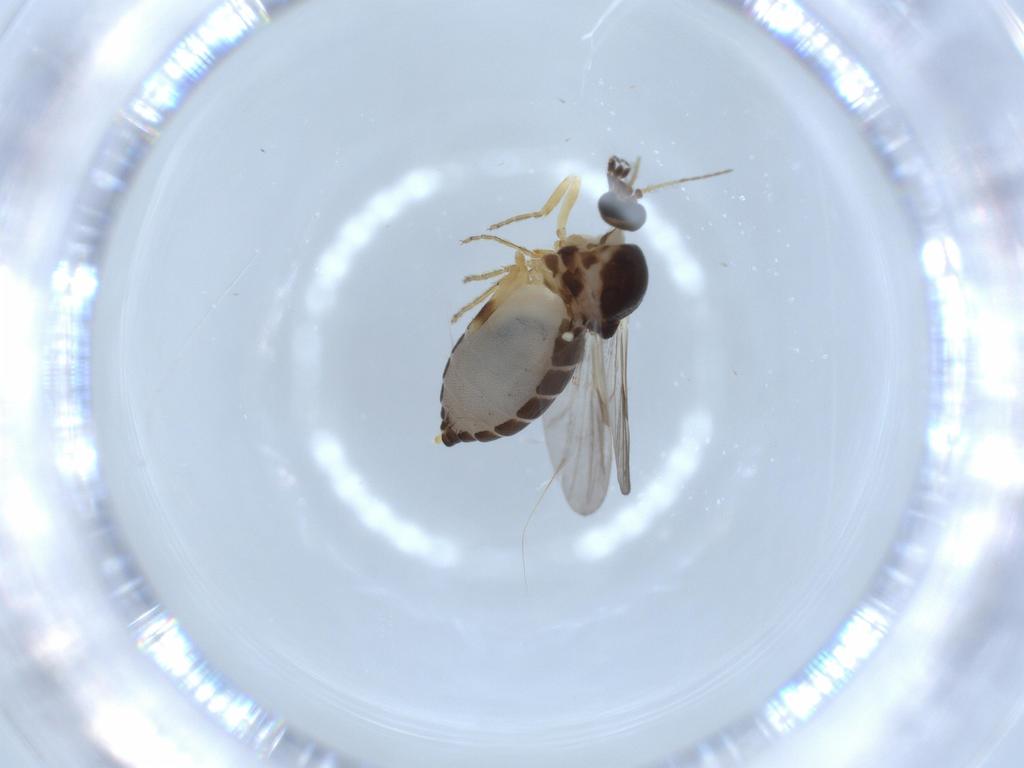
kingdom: Animalia
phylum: Arthropoda
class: Insecta
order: Diptera
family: Ceratopogonidae
